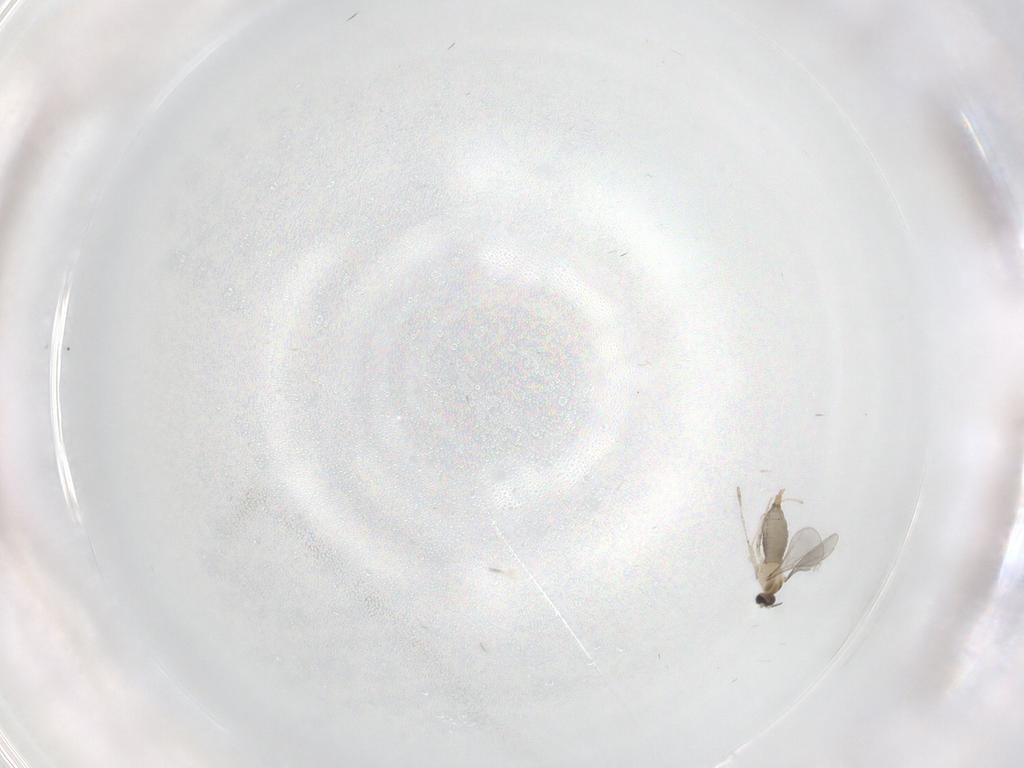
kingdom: Animalia
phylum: Arthropoda
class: Insecta
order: Diptera
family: Cecidomyiidae
